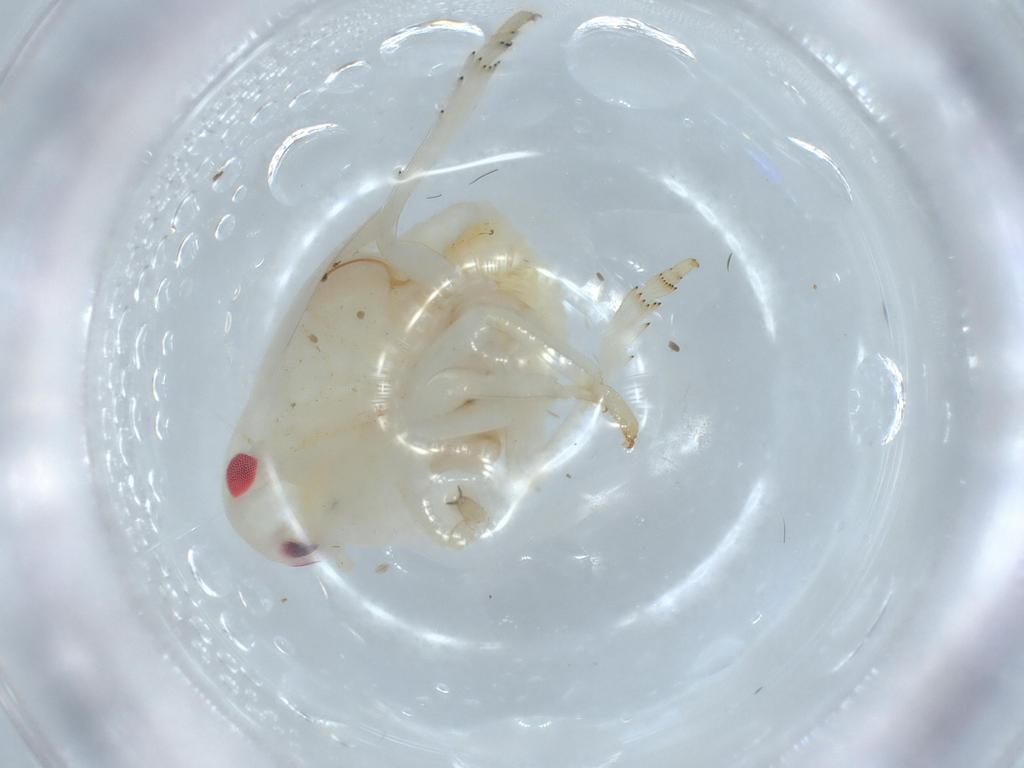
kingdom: Animalia
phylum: Arthropoda
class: Insecta
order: Hemiptera
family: Flatidae
